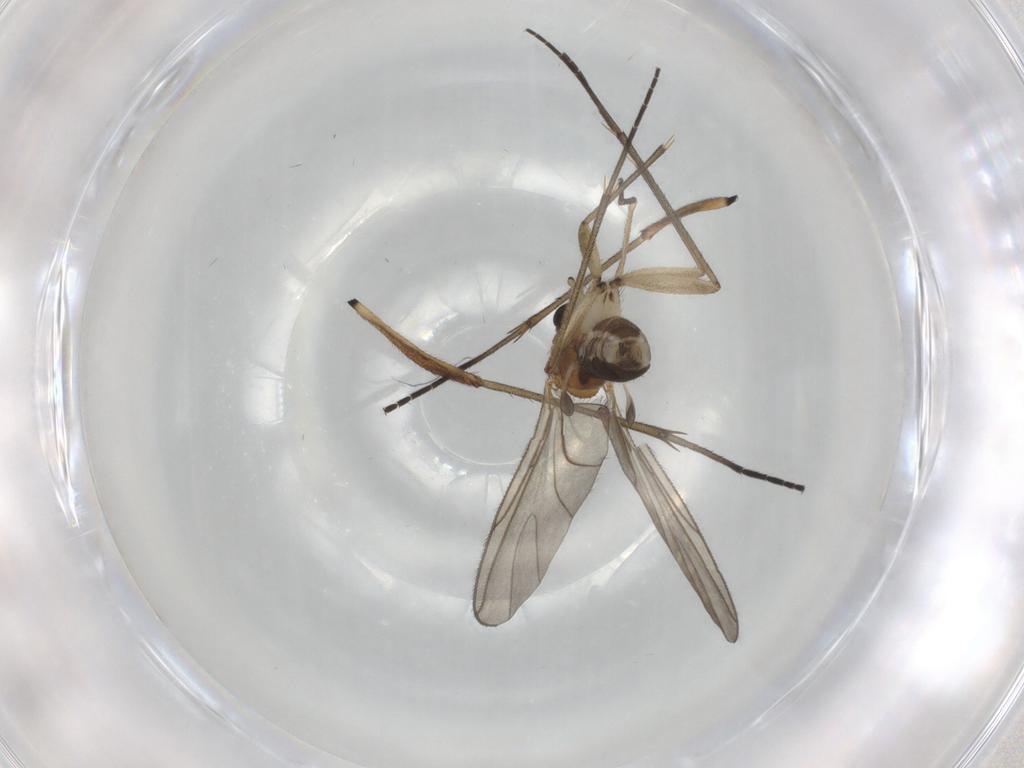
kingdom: Animalia
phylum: Arthropoda
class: Insecta
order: Diptera
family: Sciaridae
